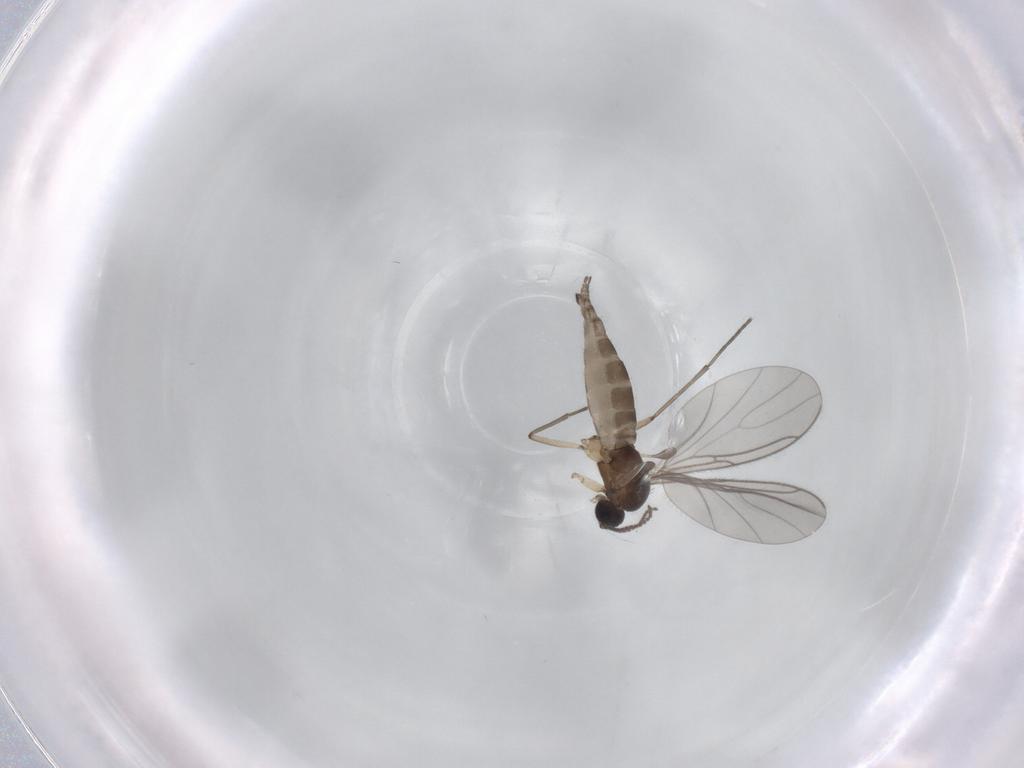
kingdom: Animalia
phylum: Arthropoda
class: Insecta
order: Diptera
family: Sciaridae
